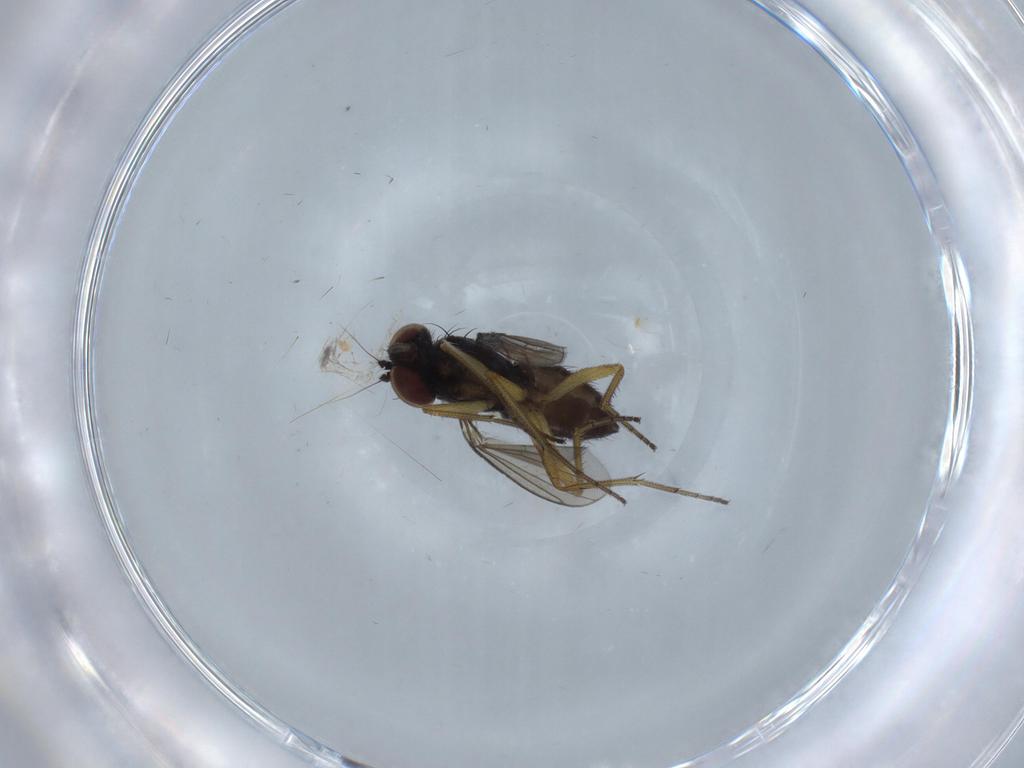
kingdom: Animalia
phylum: Arthropoda
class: Insecta
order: Diptera
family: Dolichopodidae
